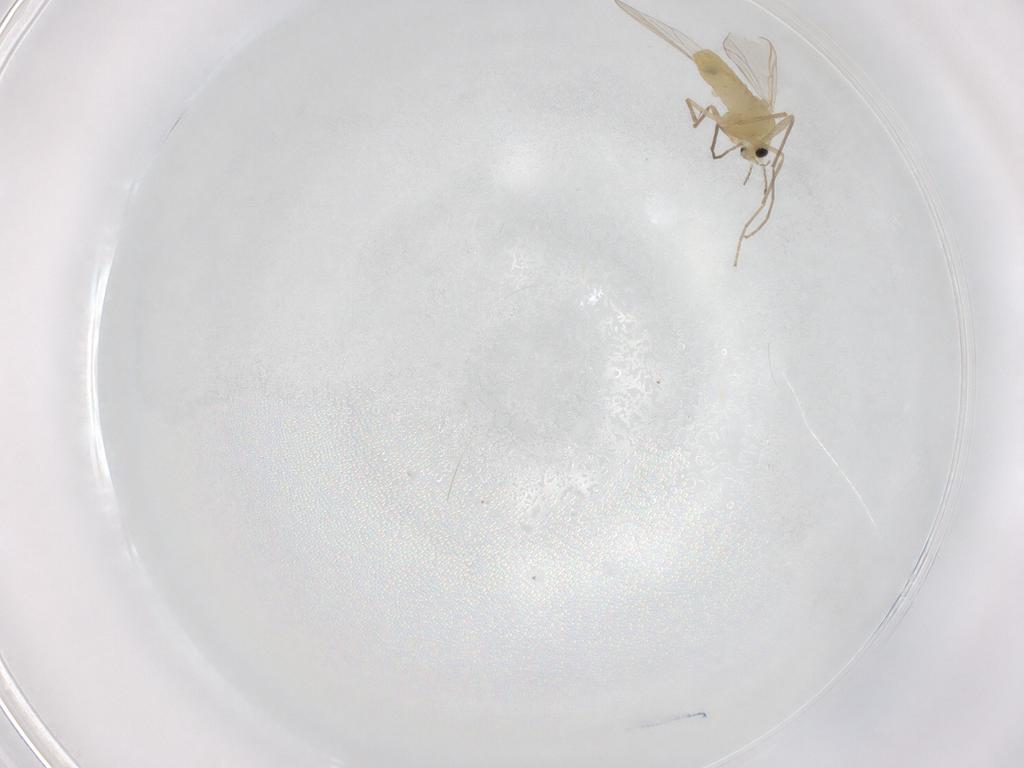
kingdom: Animalia
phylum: Arthropoda
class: Insecta
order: Diptera
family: Chironomidae
